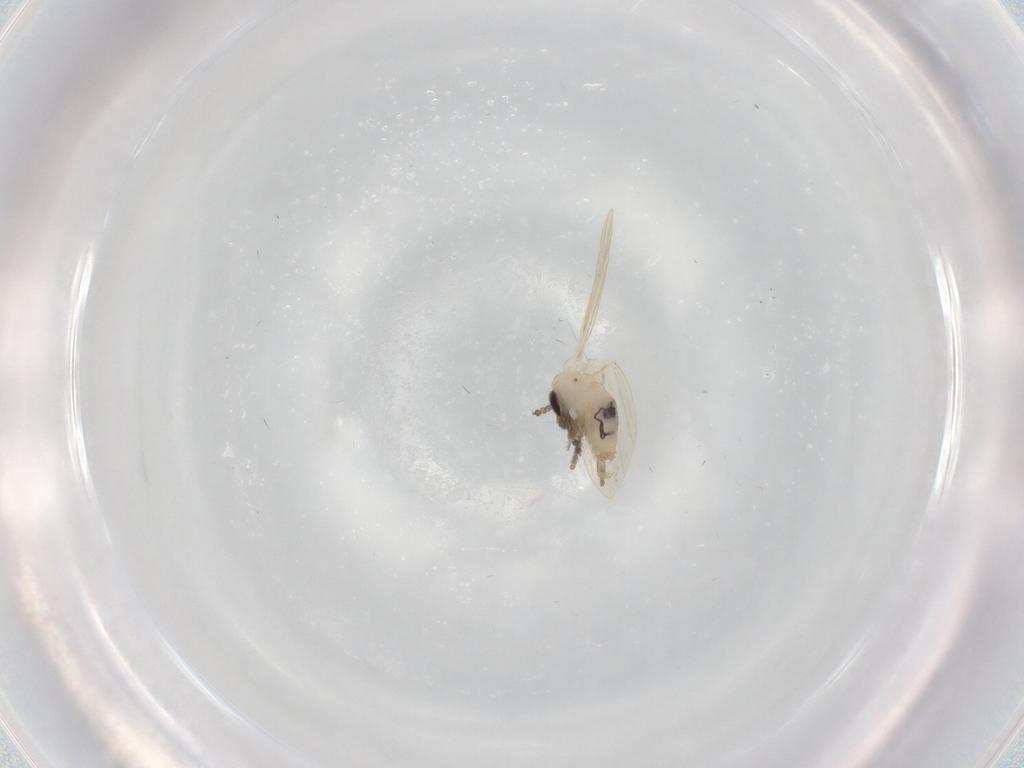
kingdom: Animalia
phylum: Arthropoda
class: Insecta
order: Diptera
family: Psychodidae
